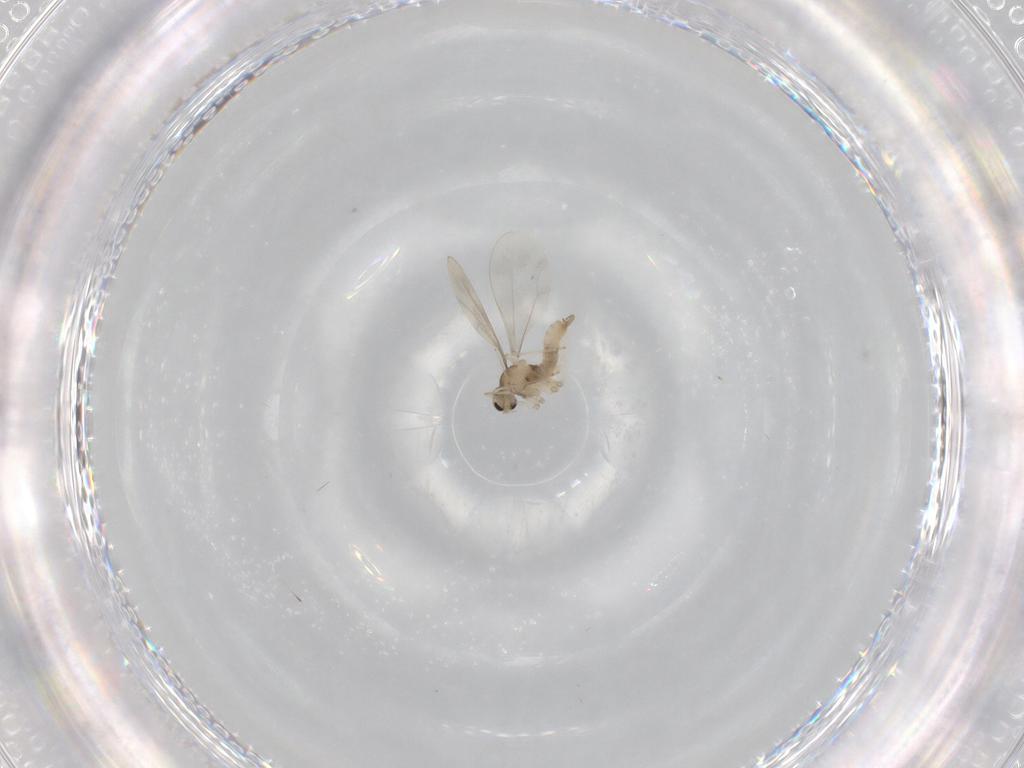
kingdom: Animalia
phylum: Arthropoda
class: Insecta
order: Diptera
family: Cecidomyiidae
